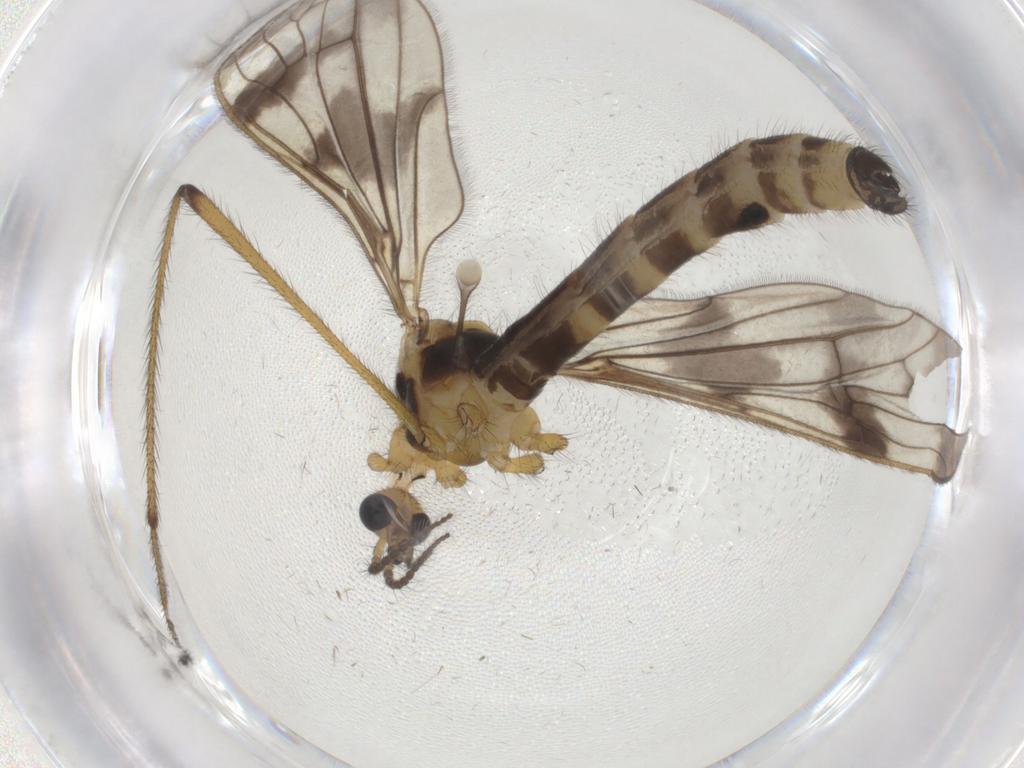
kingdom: Animalia
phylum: Arthropoda
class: Insecta
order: Diptera
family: Limoniidae
